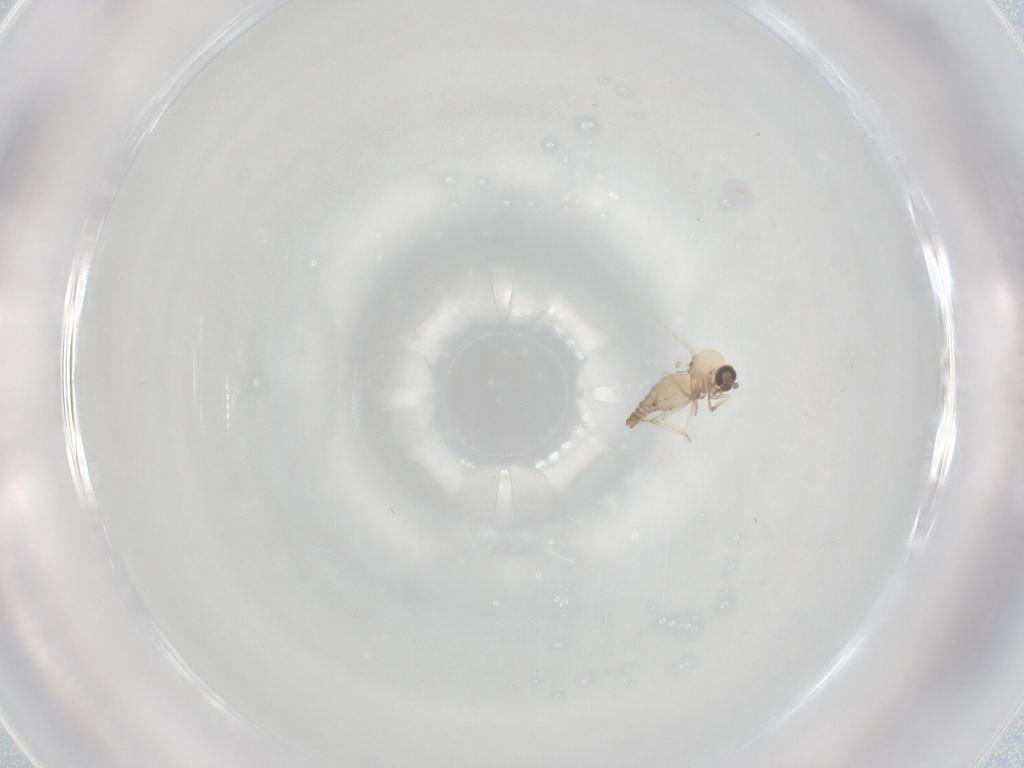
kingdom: Animalia
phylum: Arthropoda
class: Insecta
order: Diptera
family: Ceratopogonidae
